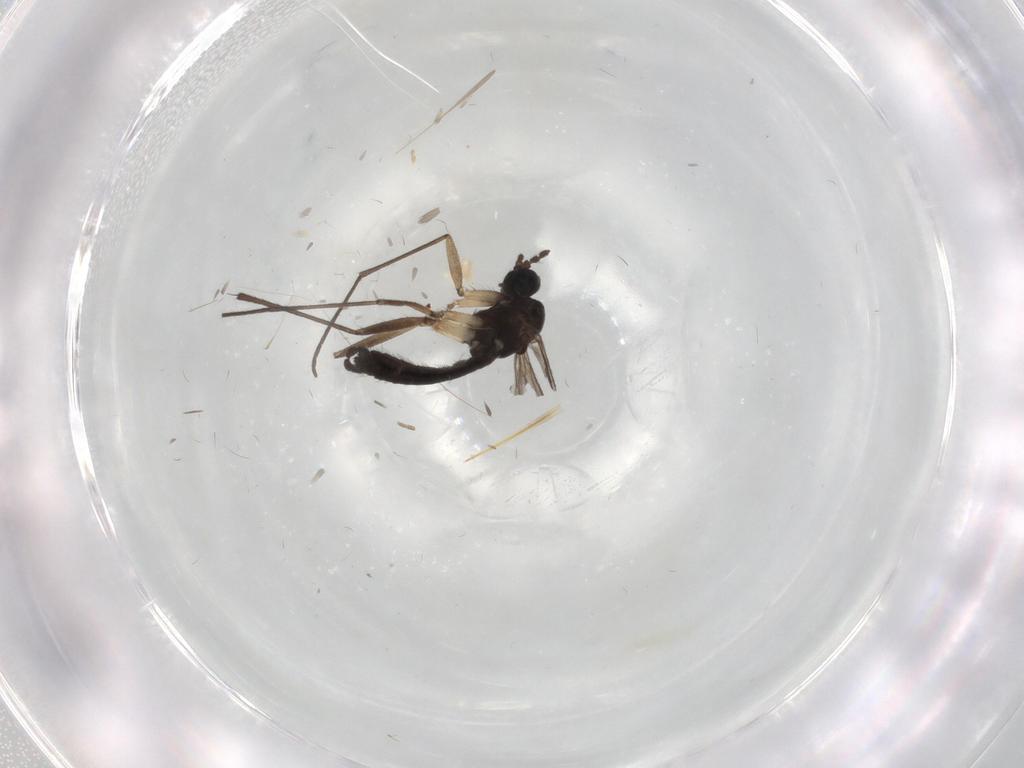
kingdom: Animalia
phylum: Arthropoda
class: Insecta
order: Diptera
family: Sciaridae
